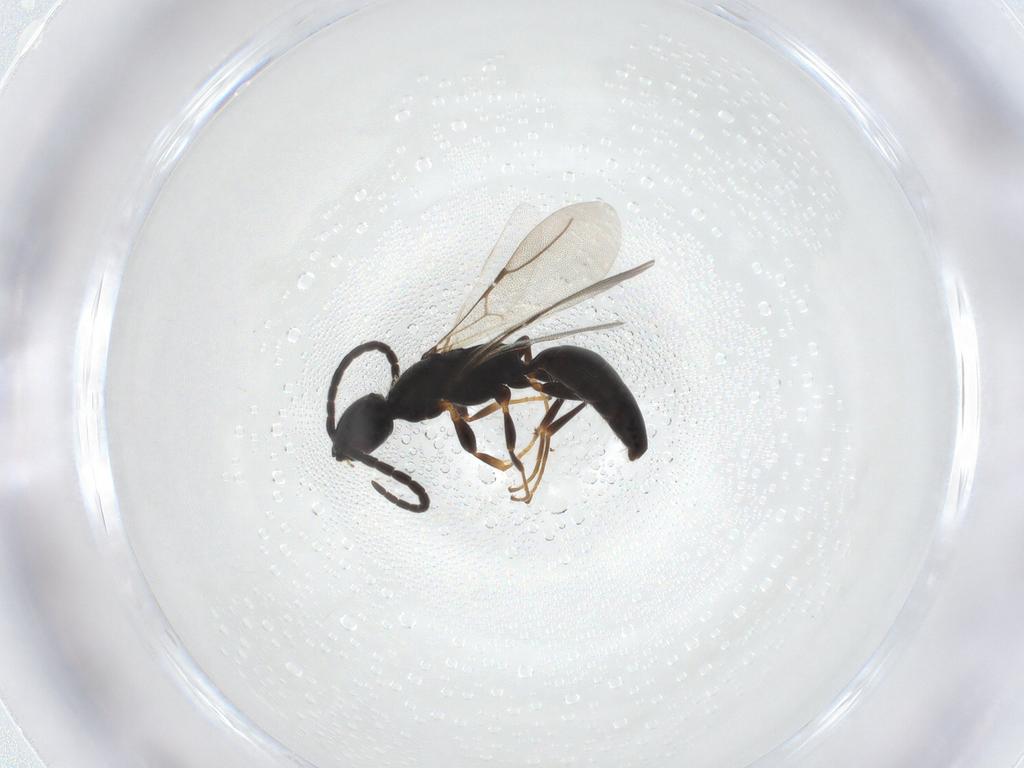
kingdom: Animalia
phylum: Arthropoda
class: Insecta
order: Hymenoptera
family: Bethylidae
